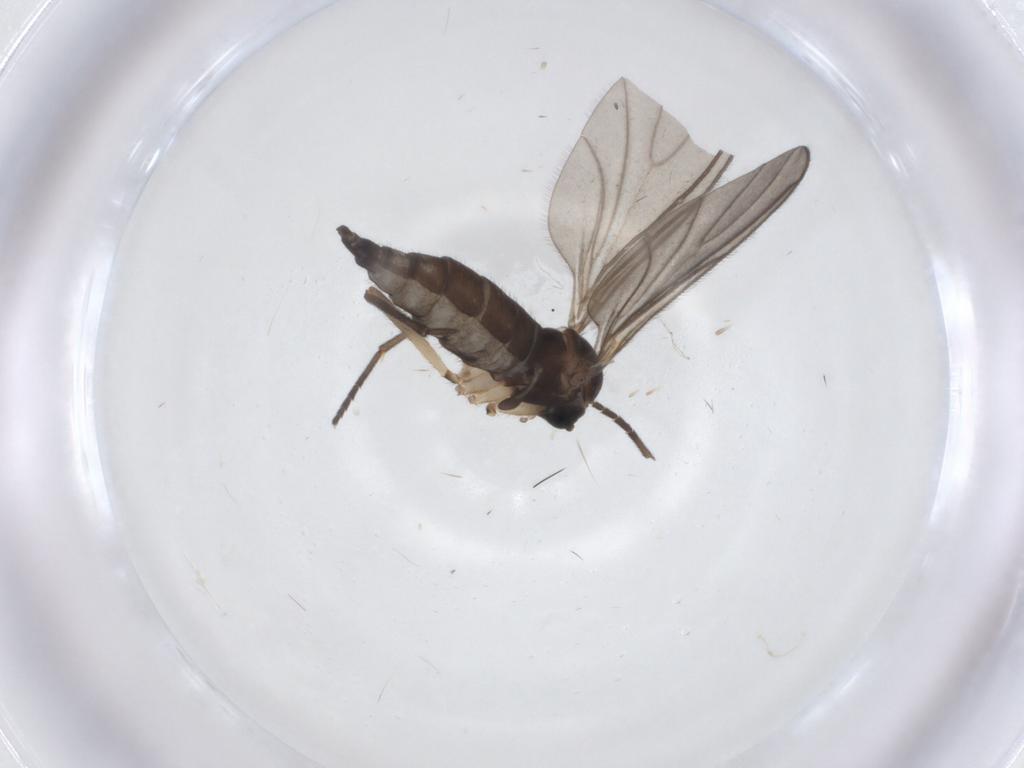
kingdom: Animalia
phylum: Arthropoda
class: Insecta
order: Diptera
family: Sciaridae
